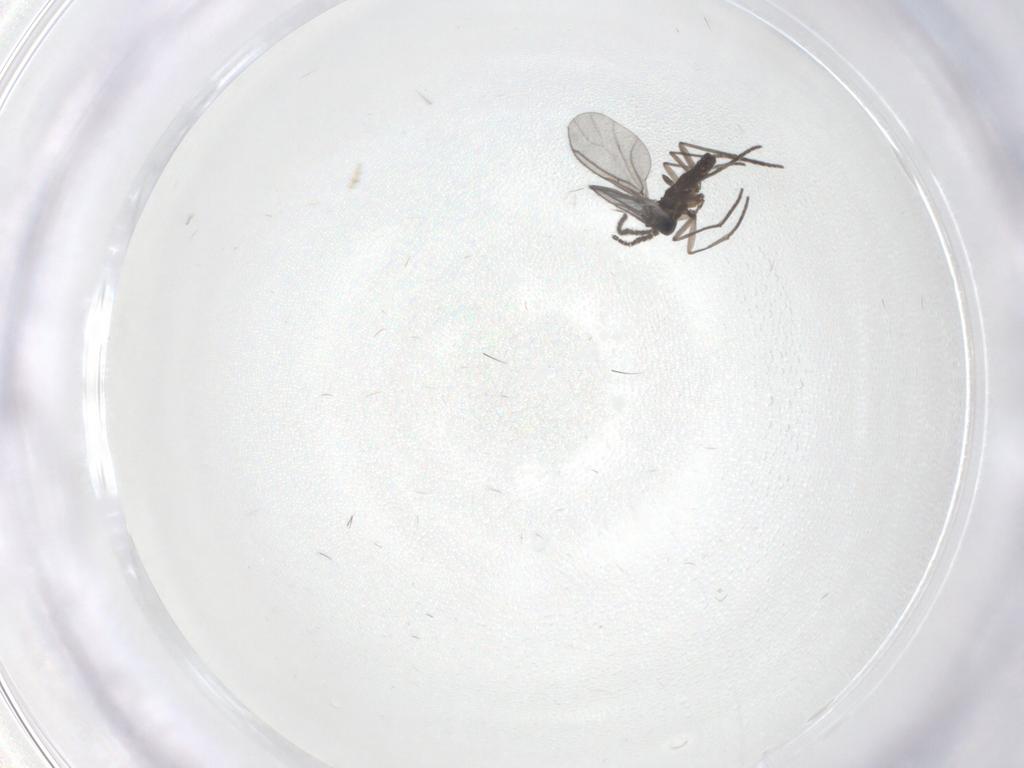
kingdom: Animalia
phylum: Arthropoda
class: Insecta
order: Diptera
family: Sciaridae
